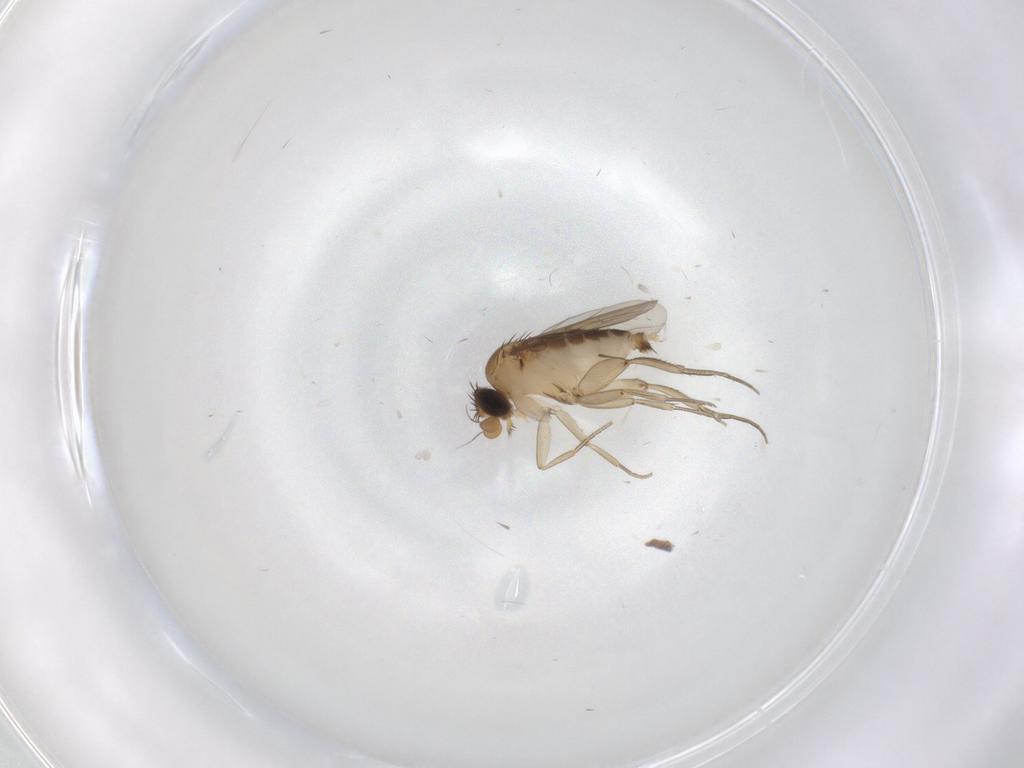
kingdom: Animalia
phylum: Arthropoda
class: Insecta
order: Diptera
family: Phoridae
